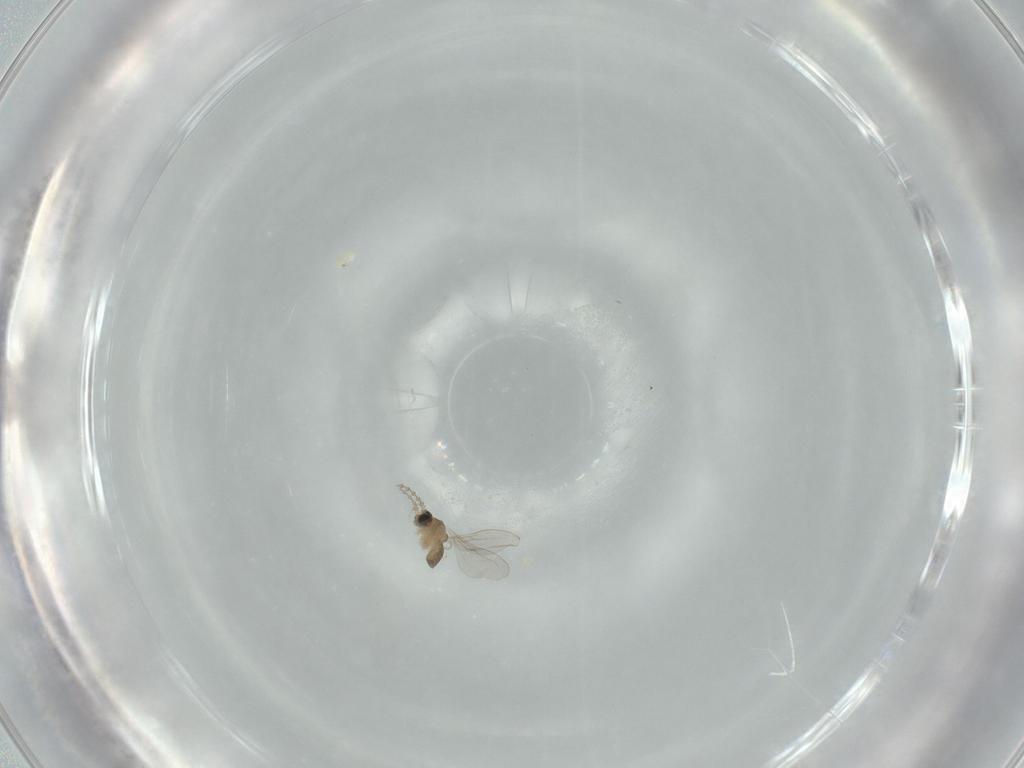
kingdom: Animalia
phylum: Arthropoda
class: Insecta
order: Diptera
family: Cecidomyiidae
